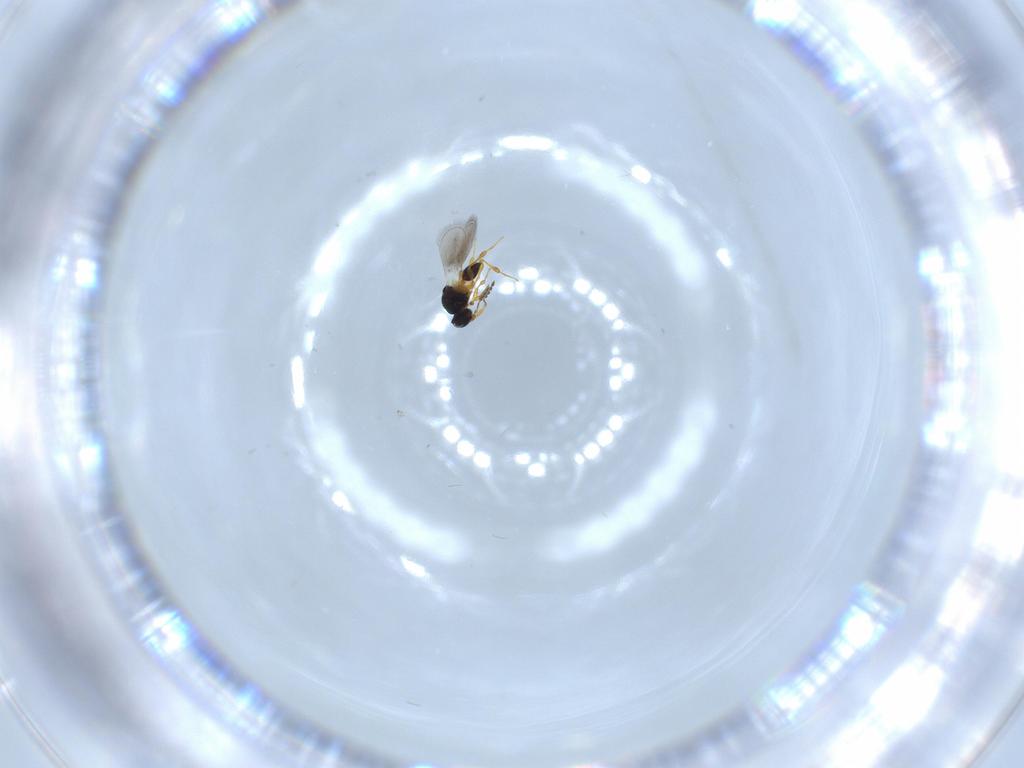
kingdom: Animalia
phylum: Arthropoda
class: Insecta
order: Hymenoptera
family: Platygastridae
